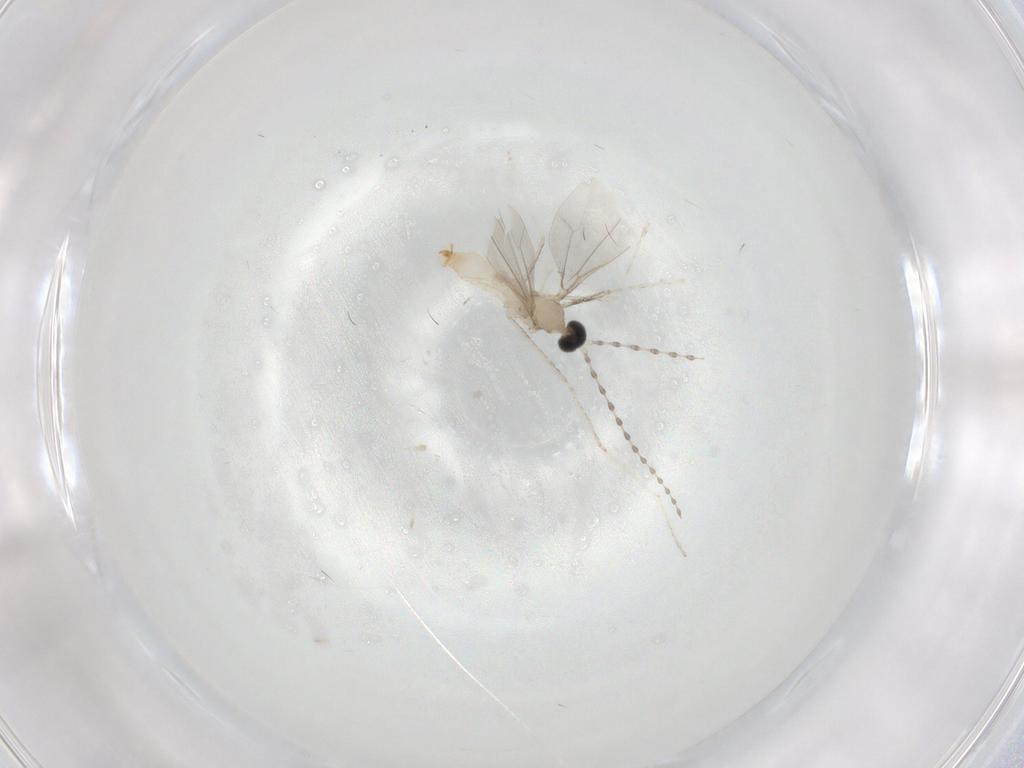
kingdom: Animalia
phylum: Arthropoda
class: Insecta
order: Diptera
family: Cecidomyiidae
